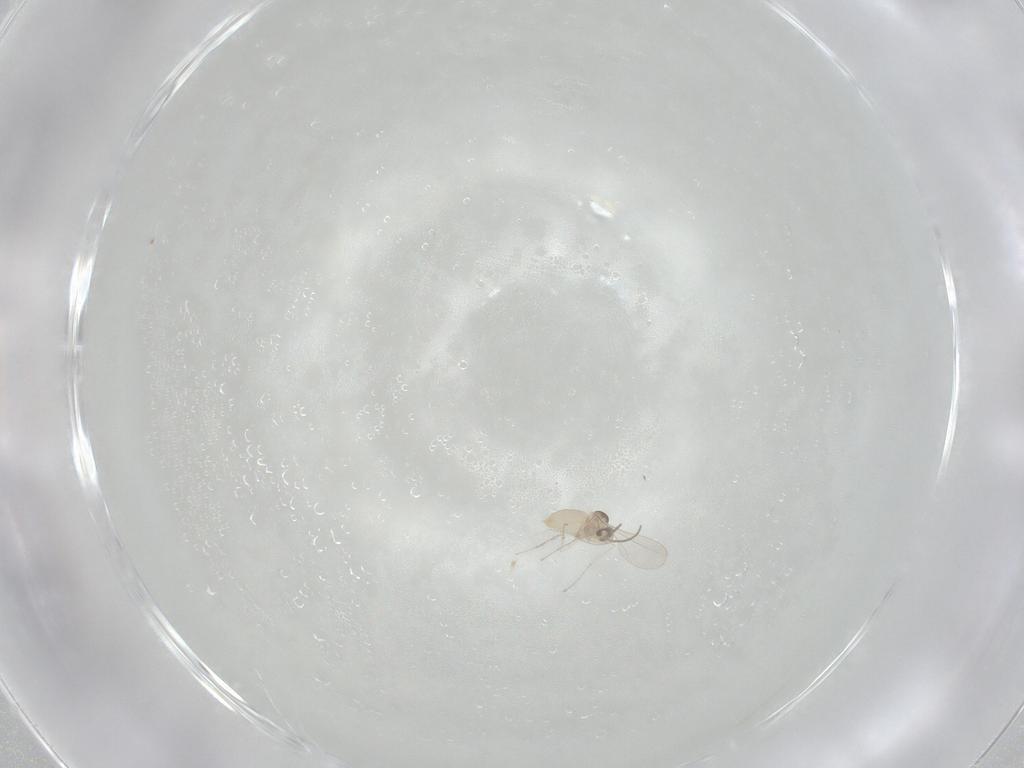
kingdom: Animalia
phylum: Arthropoda
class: Insecta
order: Diptera
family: Cecidomyiidae
